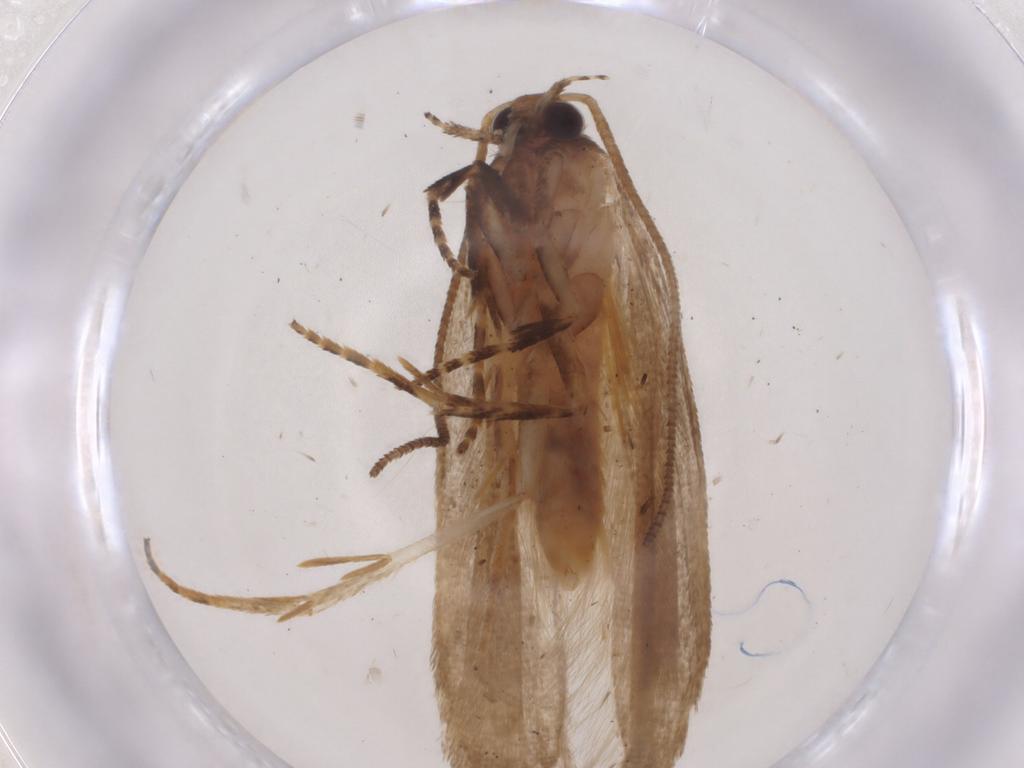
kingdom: Animalia
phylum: Arthropoda
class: Insecta
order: Lepidoptera
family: Gelechiidae
